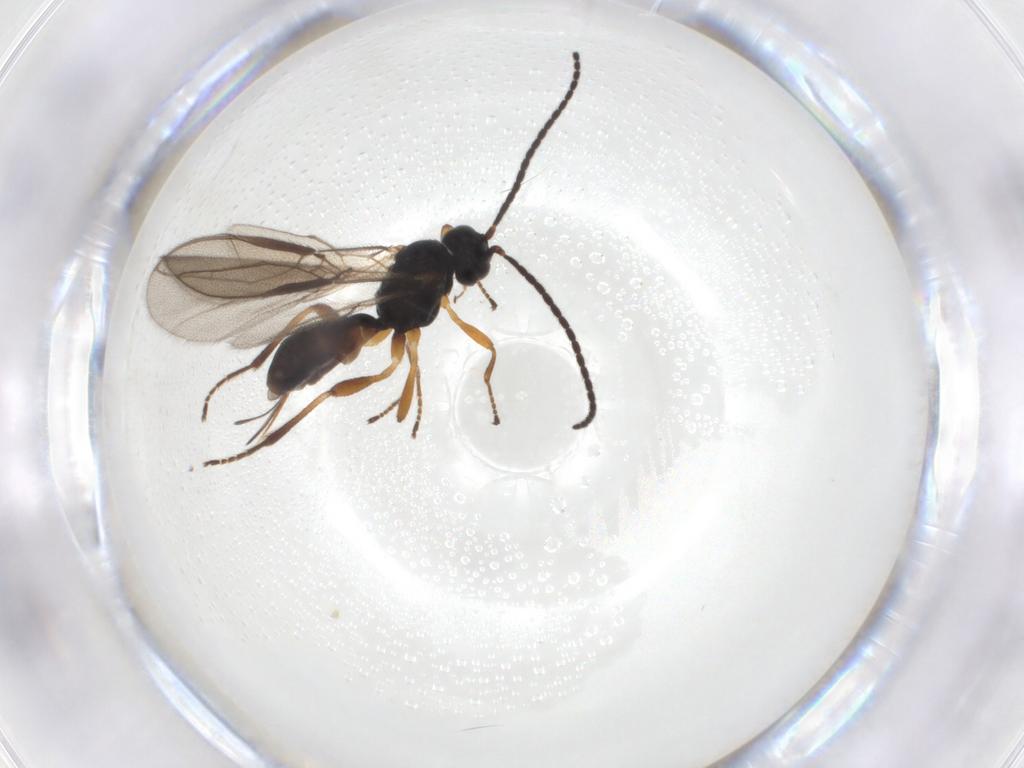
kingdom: Animalia
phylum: Arthropoda
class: Insecta
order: Hymenoptera
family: Braconidae
